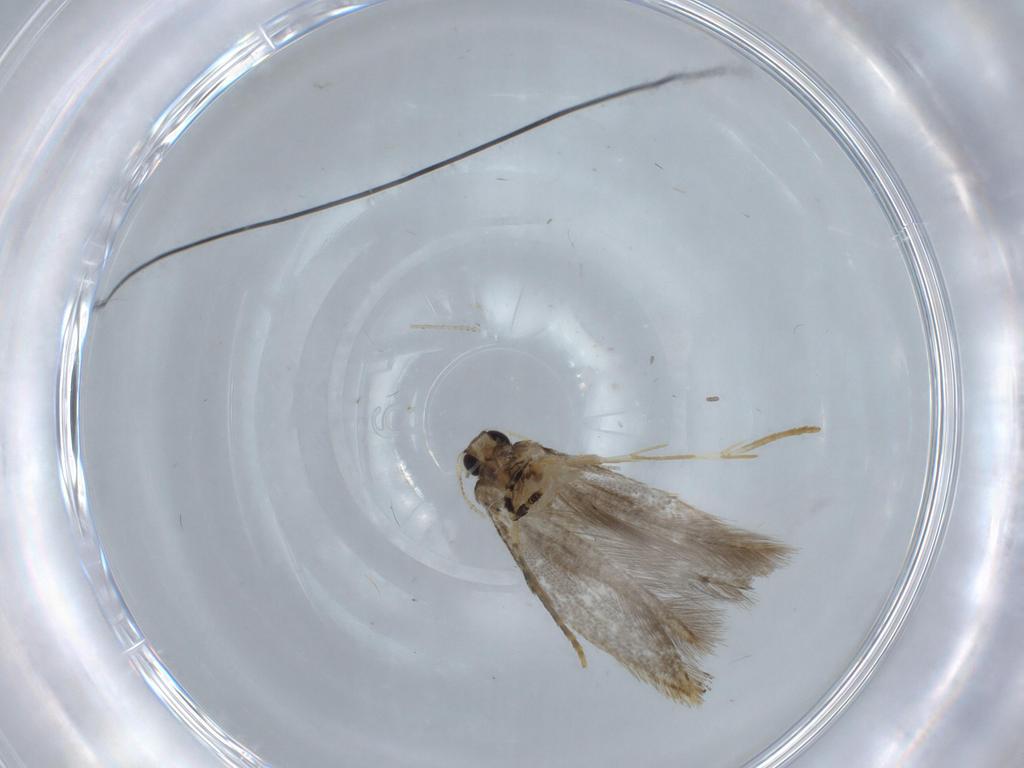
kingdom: Animalia
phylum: Arthropoda
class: Insecta
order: Lepidoptera
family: Tineidae
